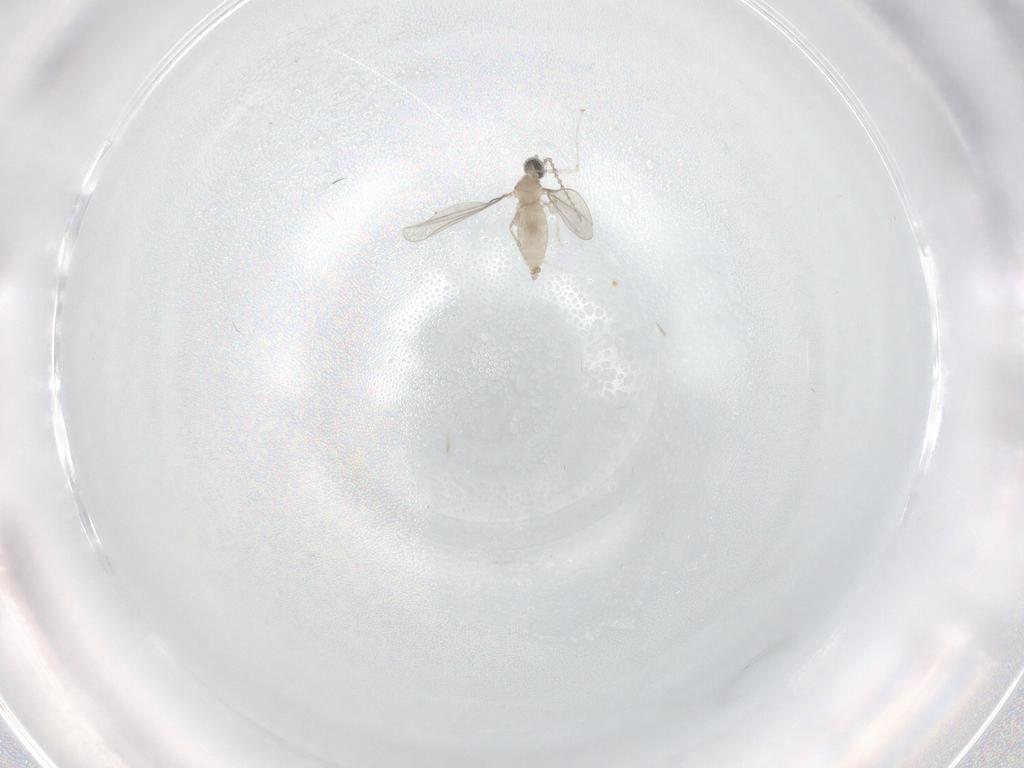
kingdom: Animalia
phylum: Arthropoda
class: Insecta
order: Diptera
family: Cecidomyiidae
